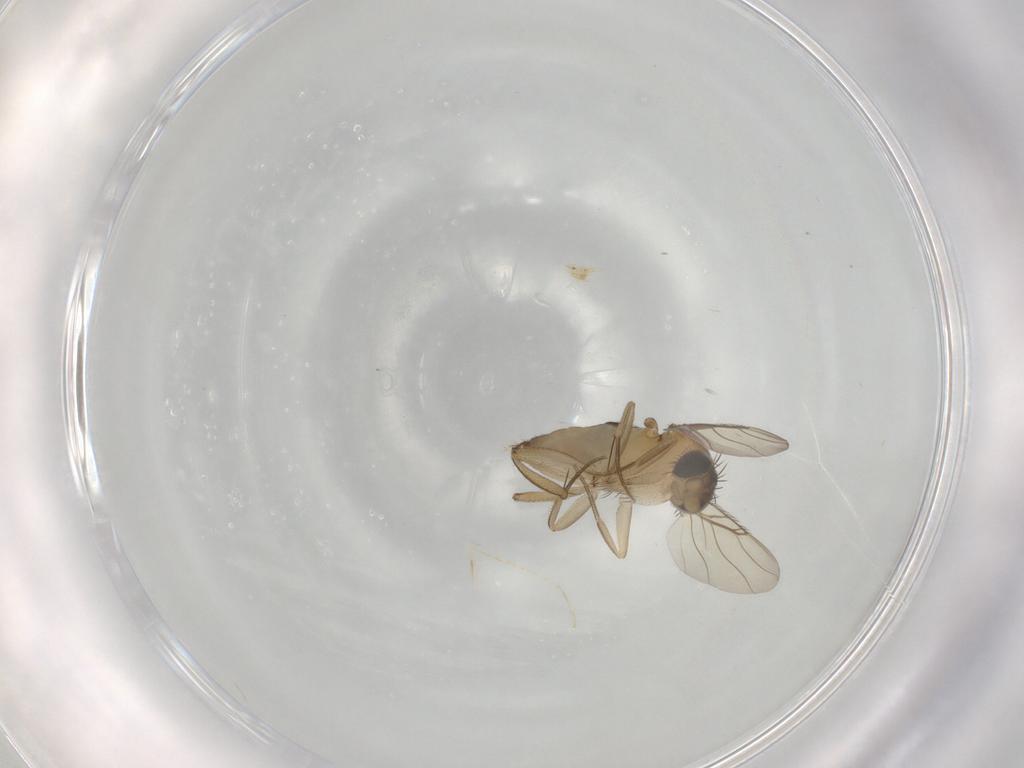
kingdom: Animalia
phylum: Arthropoda
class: Insecta
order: Diptera
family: Phoridae
